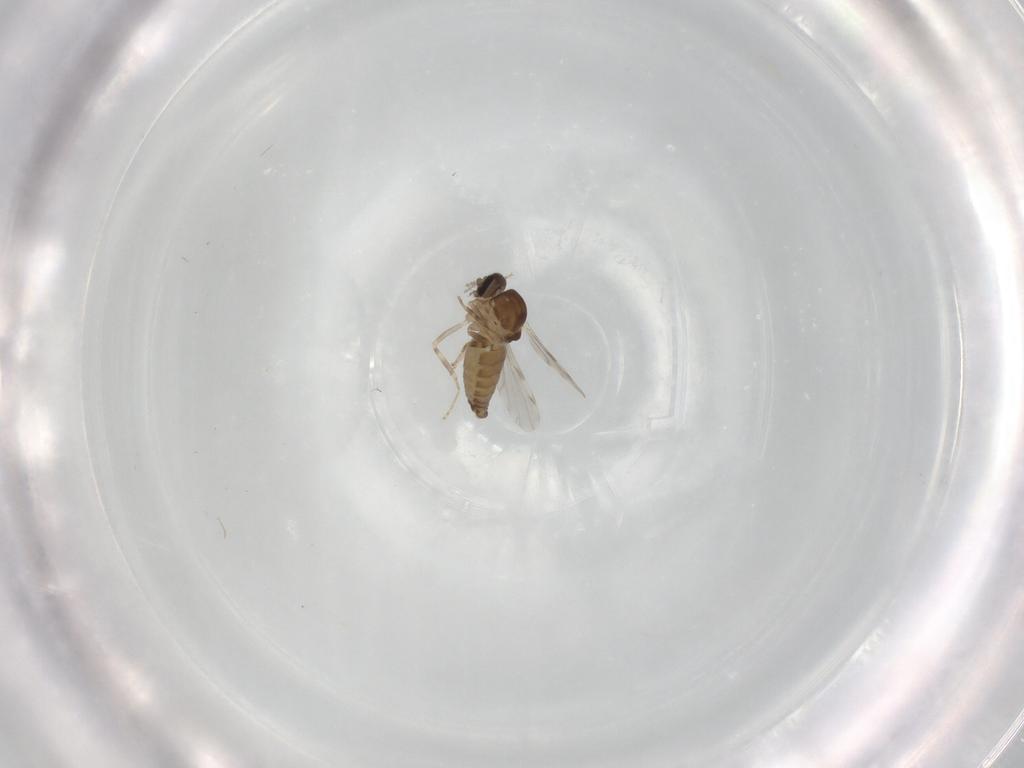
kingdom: Animalia
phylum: Arthropoda
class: Insecta
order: Diptera
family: Ceratopogonidae
